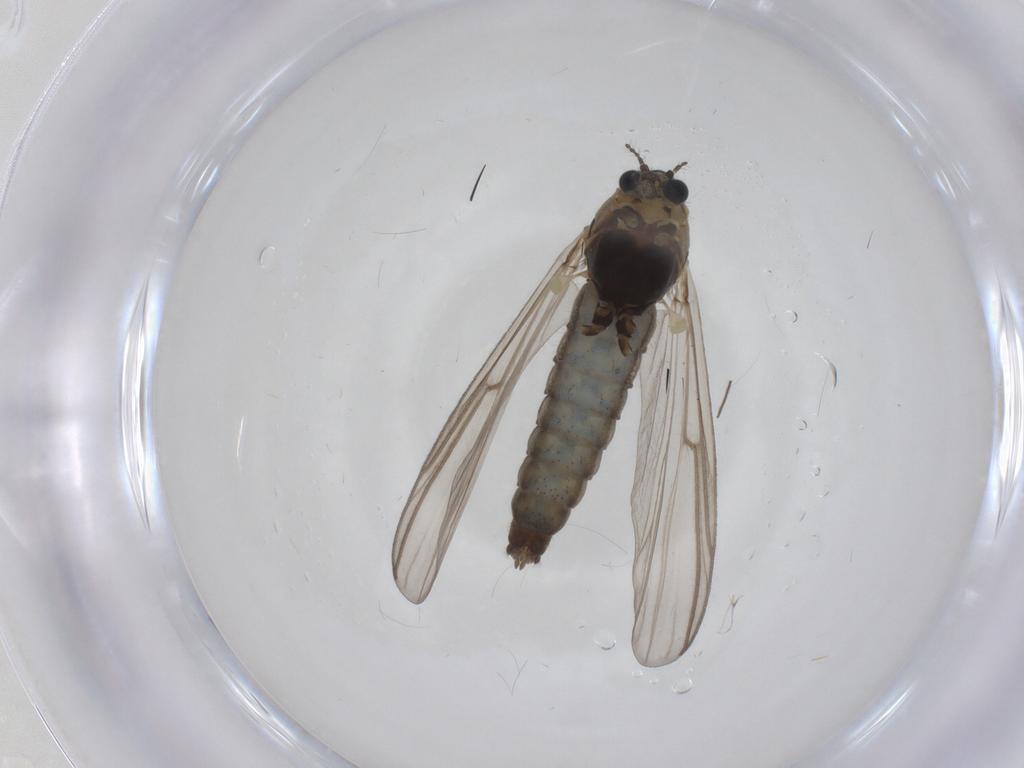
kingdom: Animalia
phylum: Arthropoda
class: Insecta
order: Diptera
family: Chironomidae
